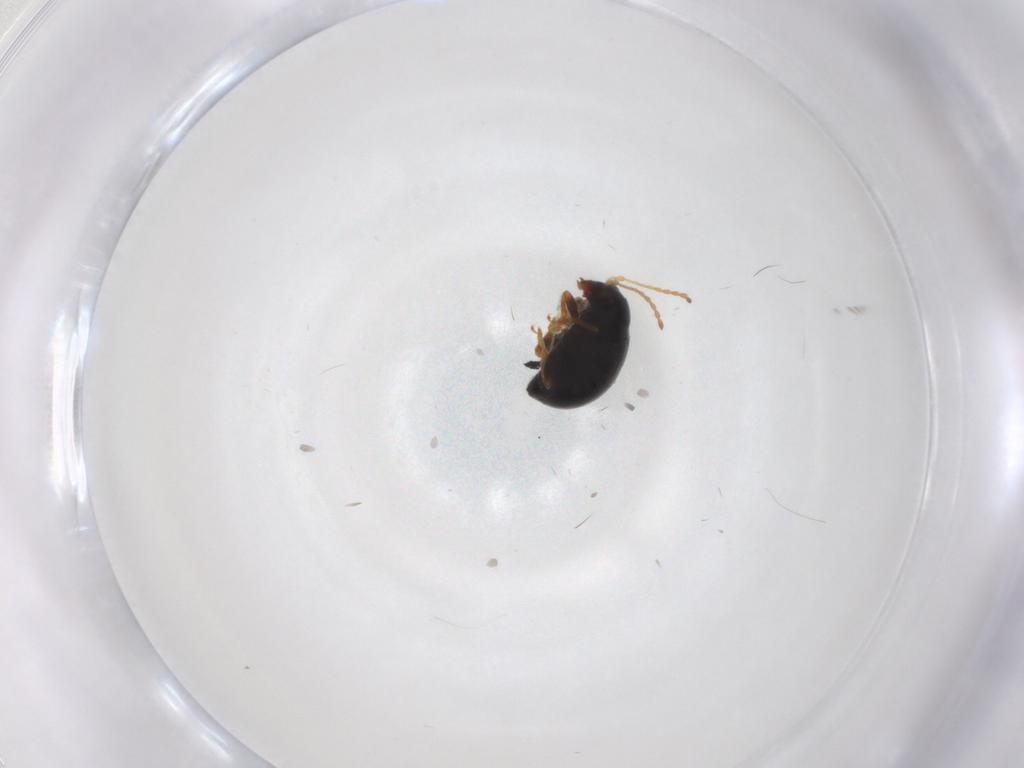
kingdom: Animalia
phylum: Arthropoda
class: Insecta
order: Coleoptera
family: Chrysomelidae
